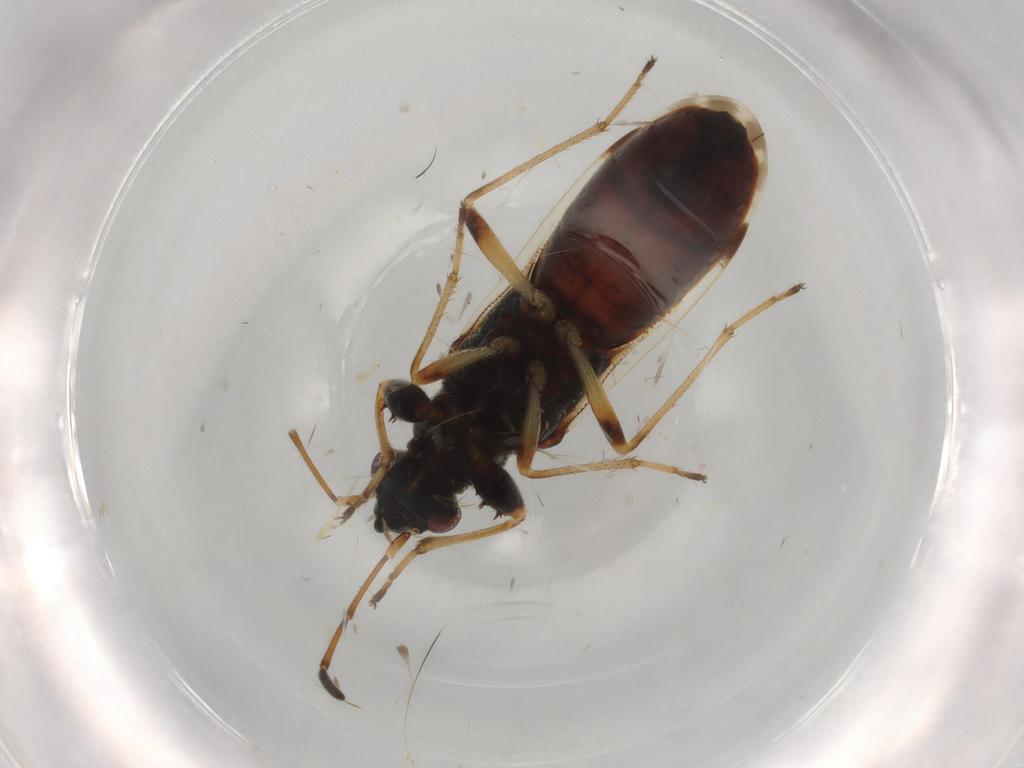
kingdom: Animalia
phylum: Arthropoda
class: Insecta
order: Hemiptera
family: Rhyparochromidae
